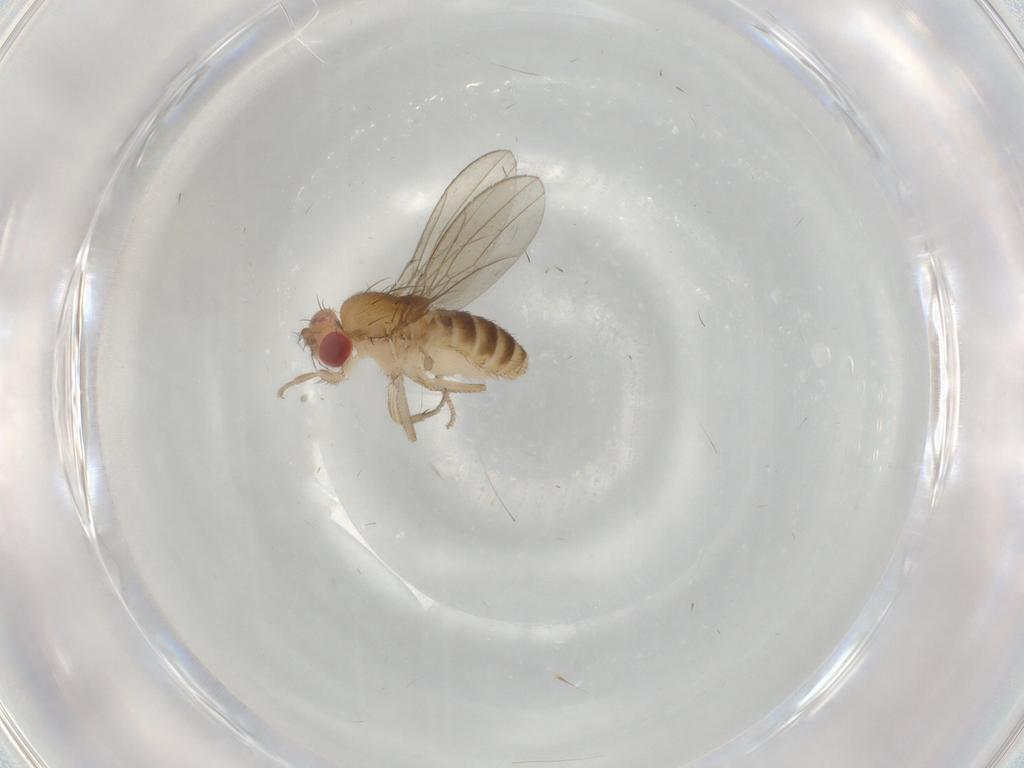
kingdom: Animalia
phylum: Arthropoda
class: Insecta
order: Diptera
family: Drosophilidae
